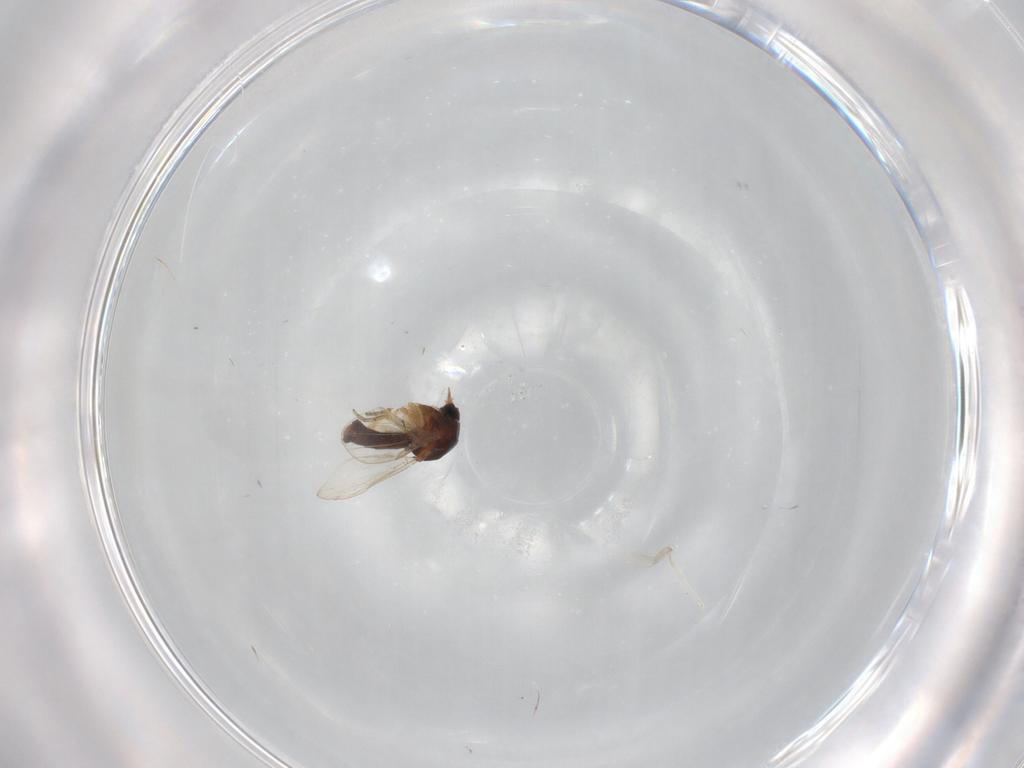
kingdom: Animalia
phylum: Arthropoda
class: Insecta
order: Diptera
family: Ceratopogonidae
